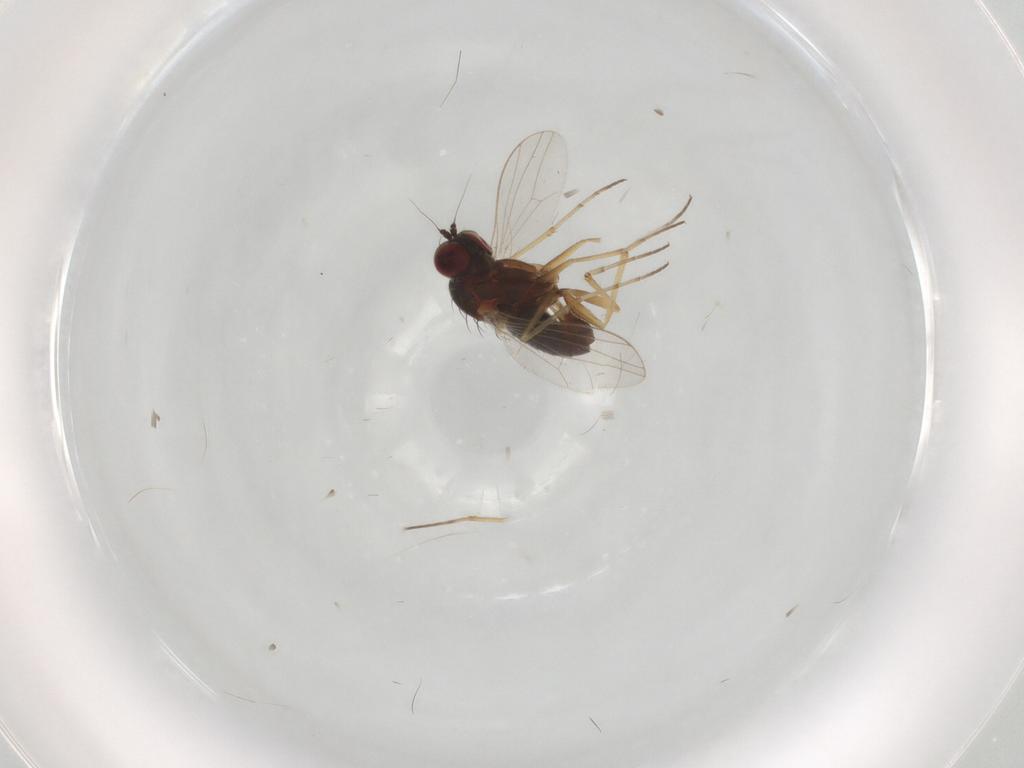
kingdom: Animalia
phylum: Arthropoda
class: Insecta
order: Diptera
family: Dolichopodidae
